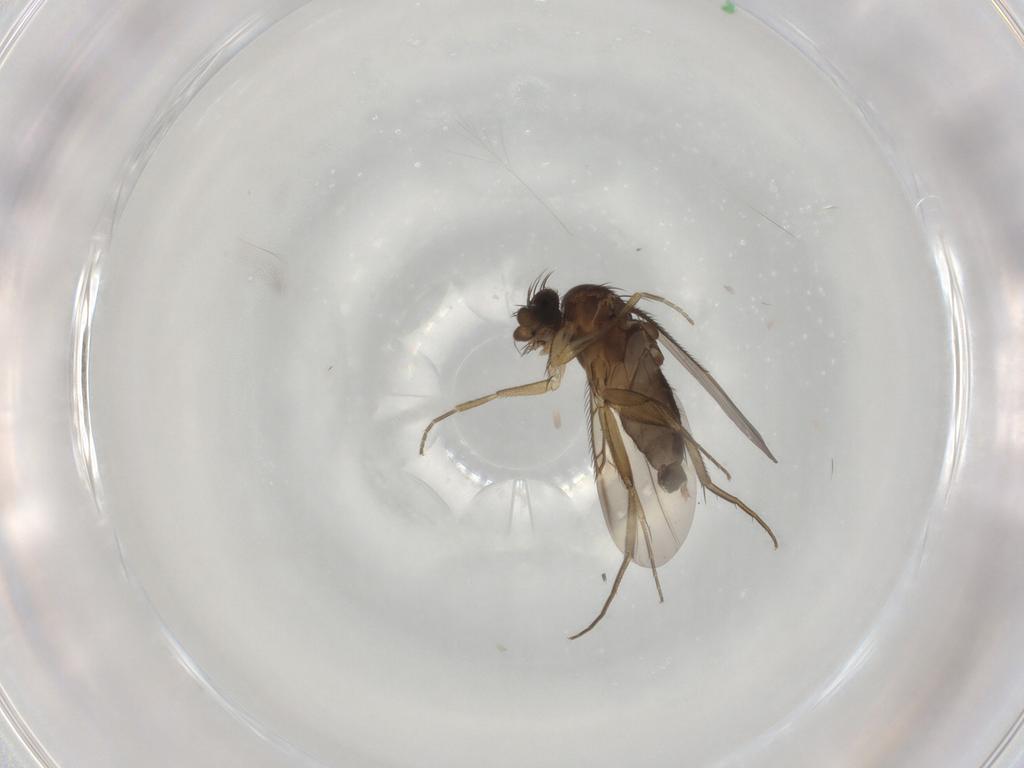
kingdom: Animalia
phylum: Arthropoda
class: Insecta
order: Diptera
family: Phoridae
